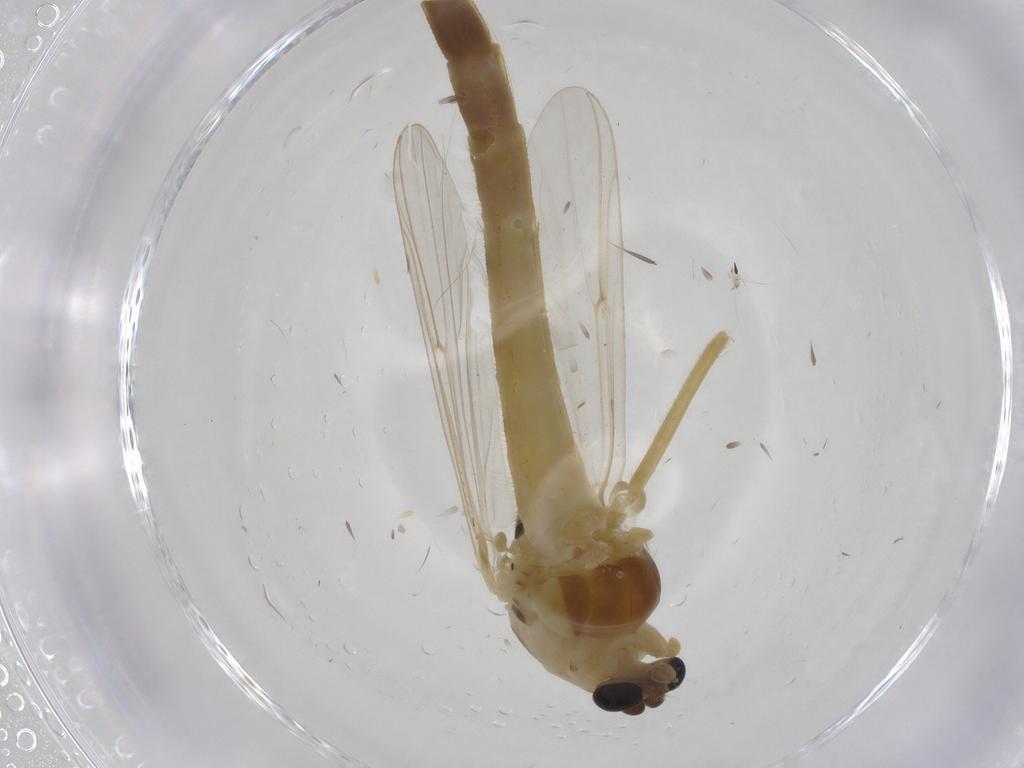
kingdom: Animalia
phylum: Arthropoda
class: Insecta
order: Diptera
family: Chironomidae
